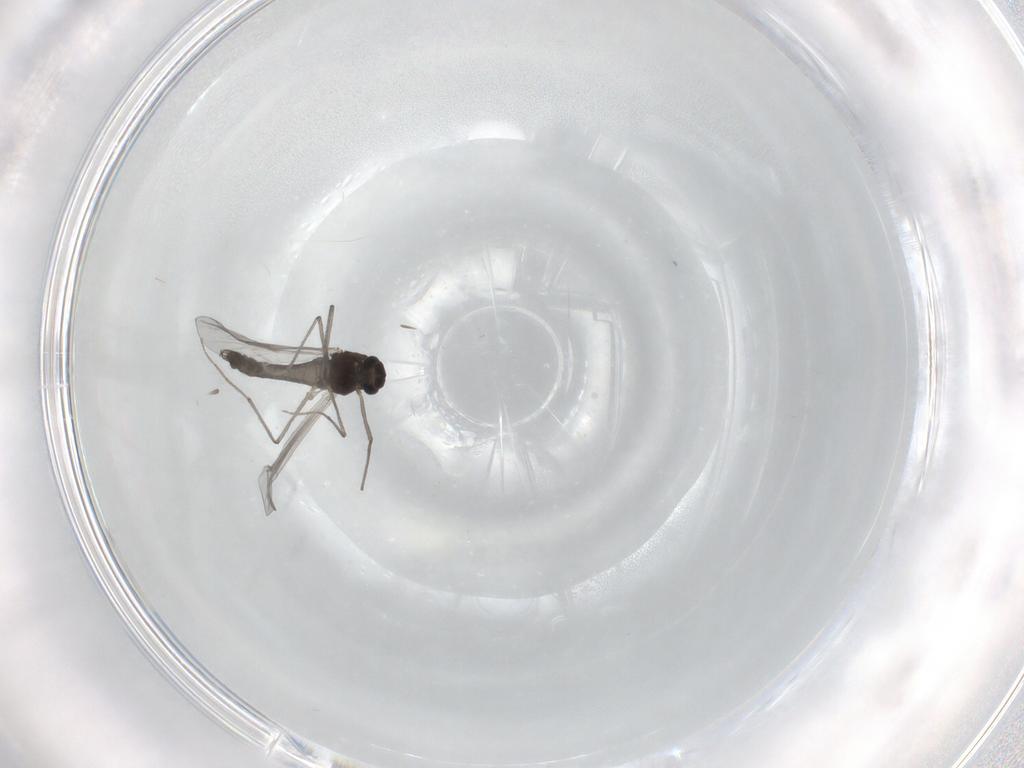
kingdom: Animalia
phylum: Arthropoda
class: Insecta
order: Diptera
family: Chironomidae
